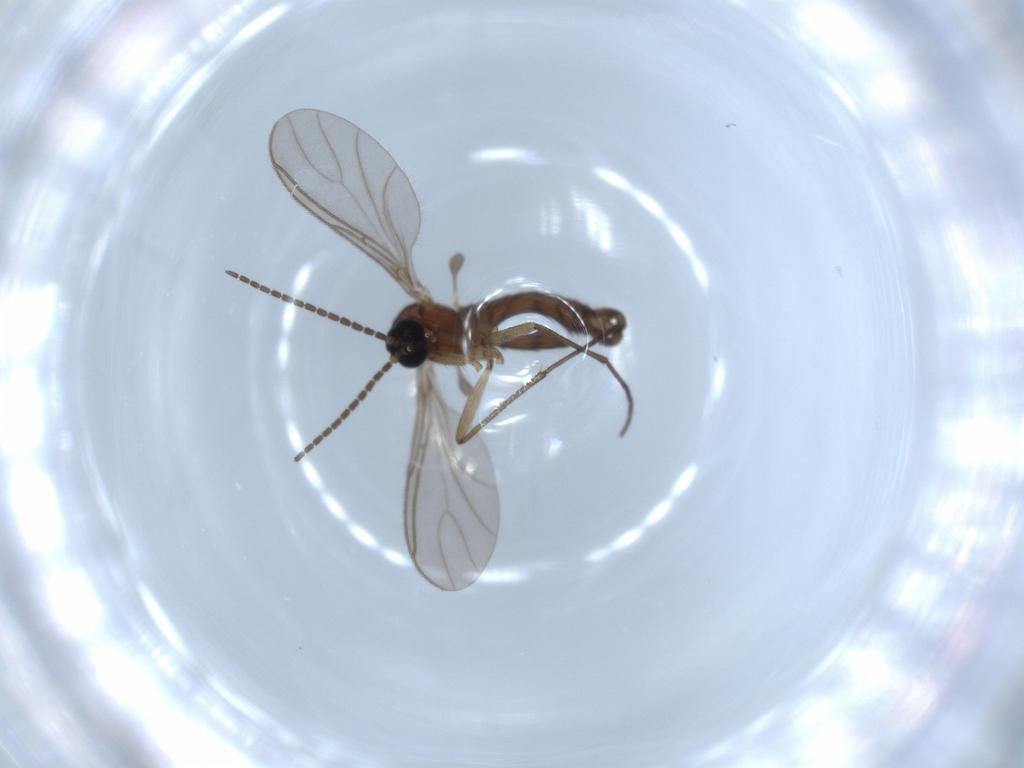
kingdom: Animalia
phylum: Arthropoda
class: Insecta
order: Diptera
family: Sciaridae
